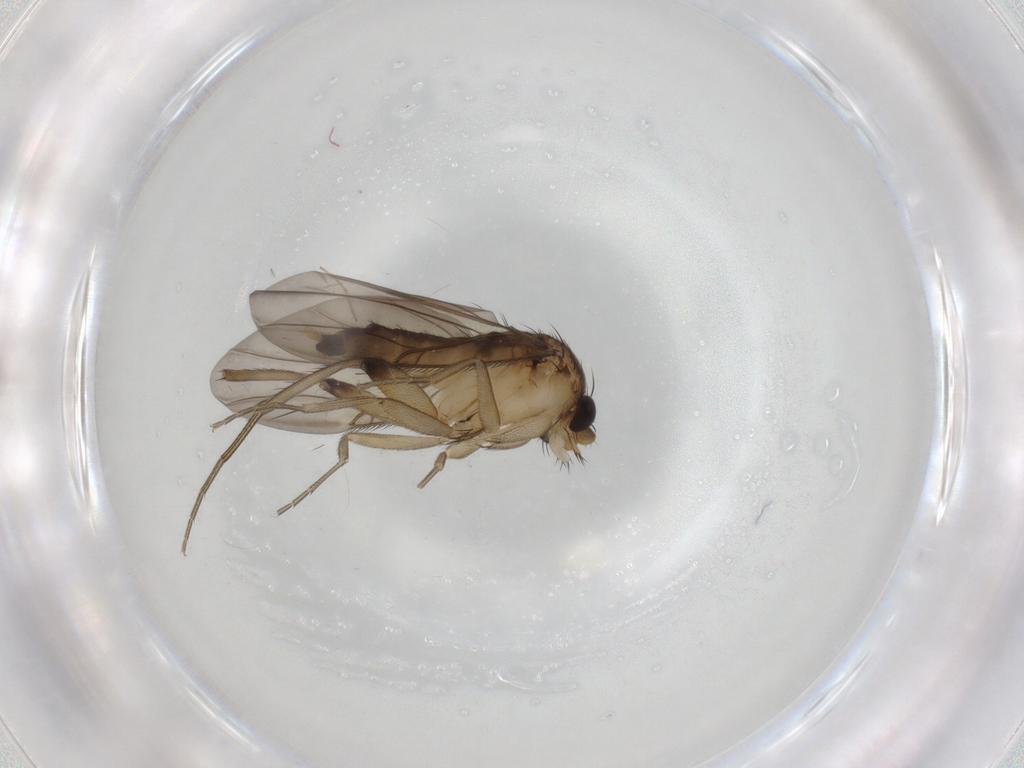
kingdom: Animalia
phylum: Arthropoda
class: Insecta
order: Diptera
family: Phoridae
